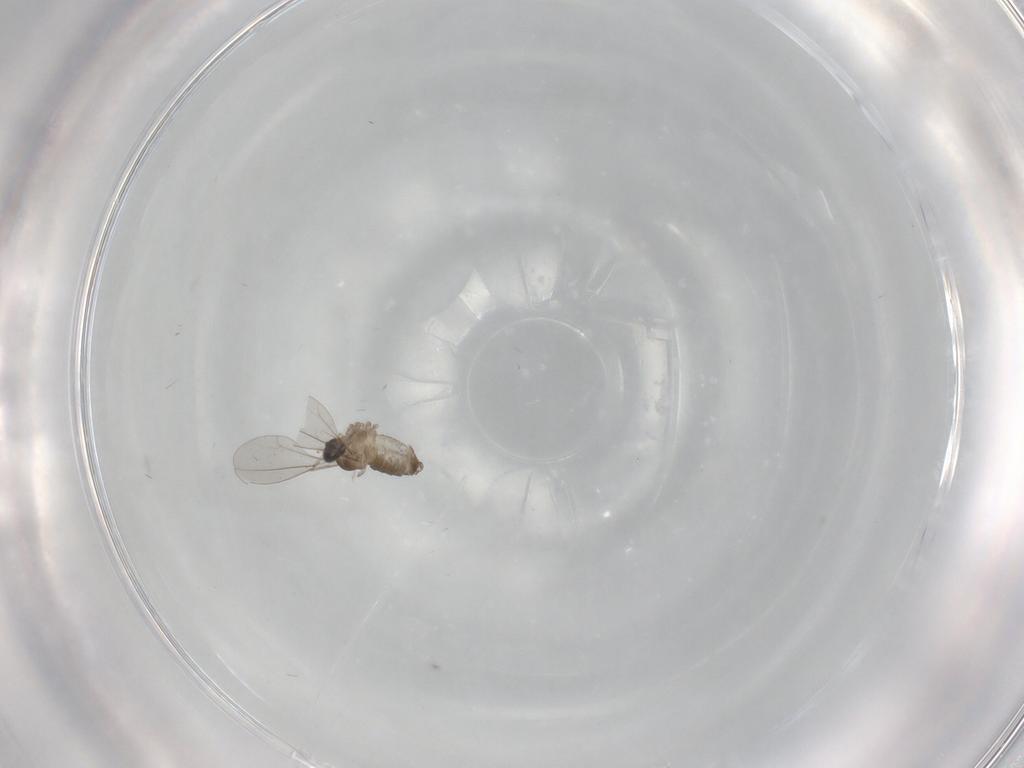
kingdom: Animalia
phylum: Arthropoda
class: Insecta
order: Diptera
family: Cecidomyiidae
